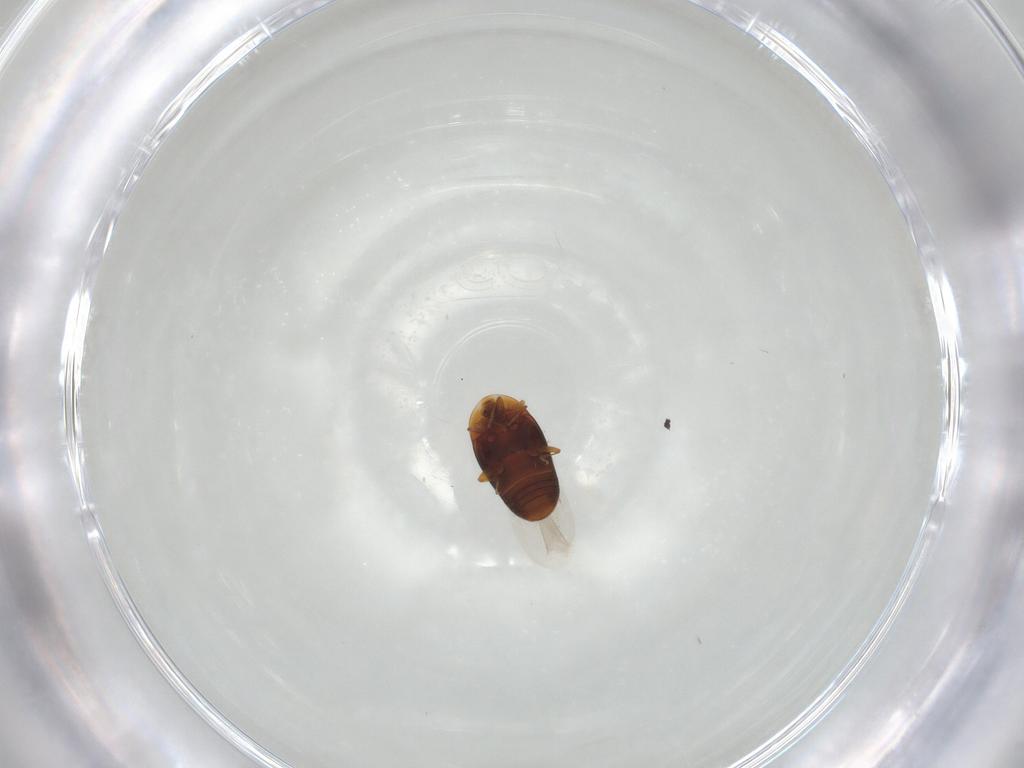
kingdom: Animalia
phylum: Arthropoda
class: Insecta
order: Coleoptera
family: Corylophidae
